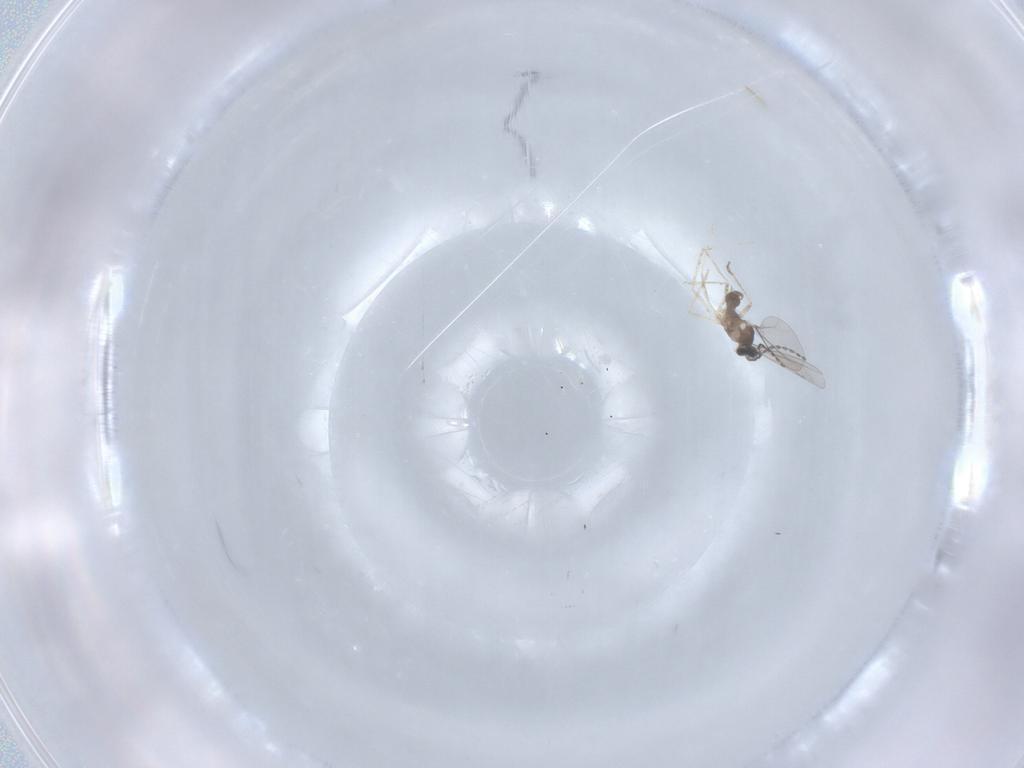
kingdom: Animalia
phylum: Arthropoda
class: Insecta
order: Diptera
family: Cecidomyiidae
